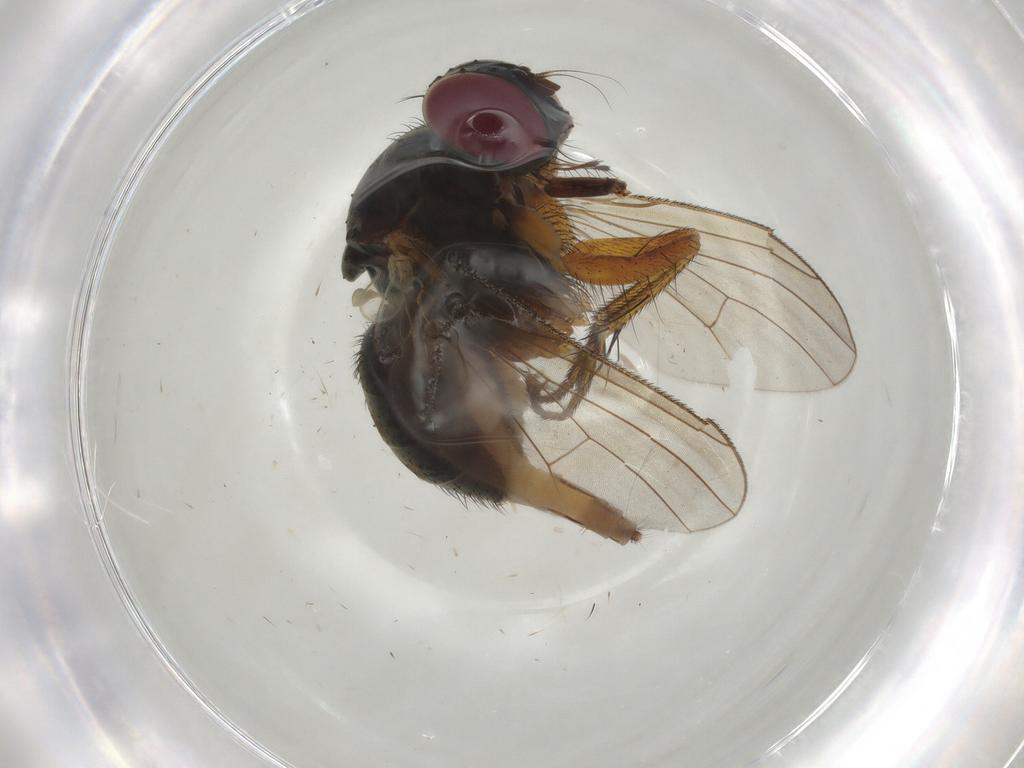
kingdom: Animalia
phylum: Arthropoda
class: Insecta
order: Diptera
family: Muscidae
